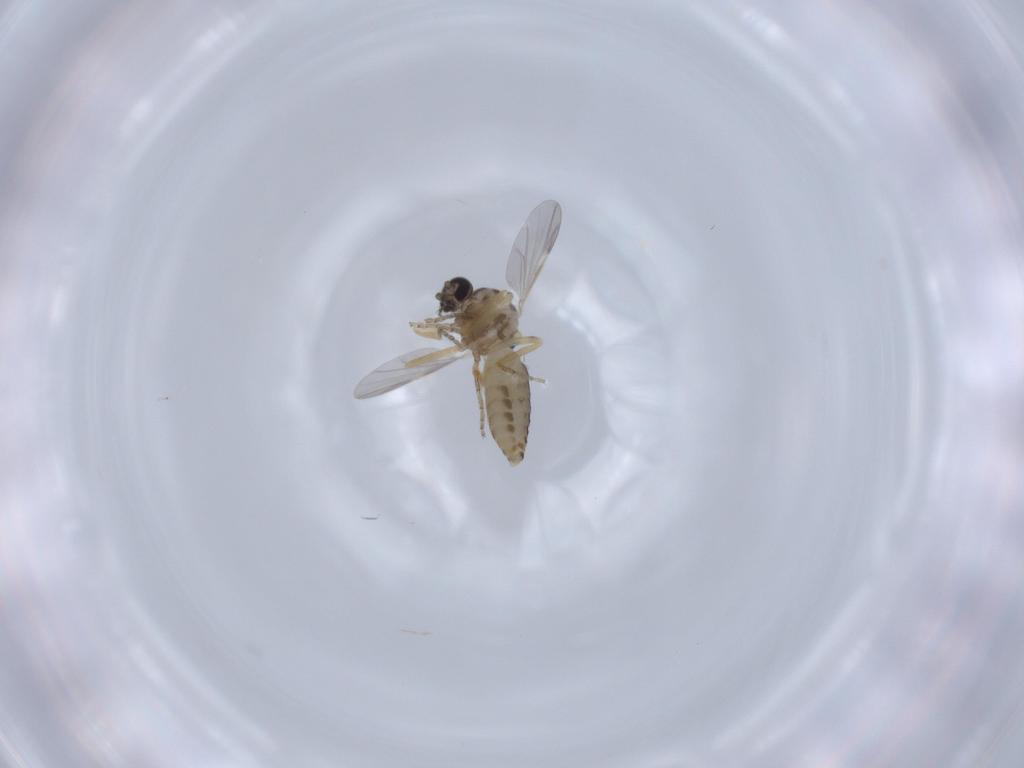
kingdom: Animalia
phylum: Arthropoda
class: Insecta
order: Diptera
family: Ceratopogonidae
